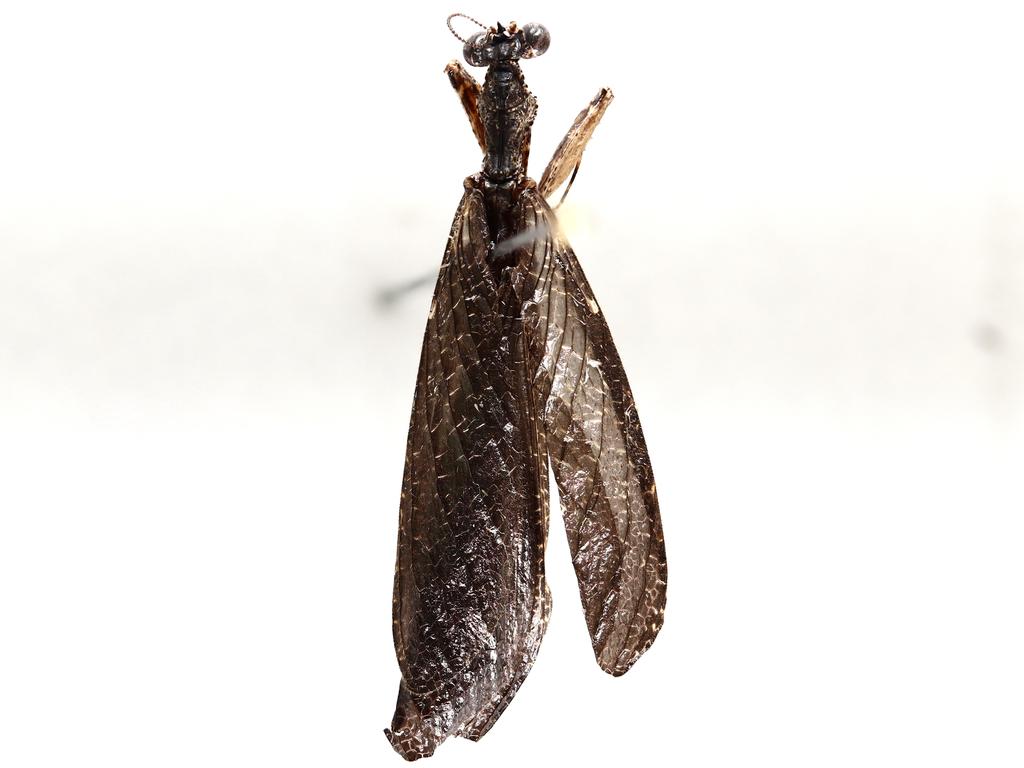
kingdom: Animalia
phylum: Arthropoda
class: Insecta
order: Diptera
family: Lauxaniidae
